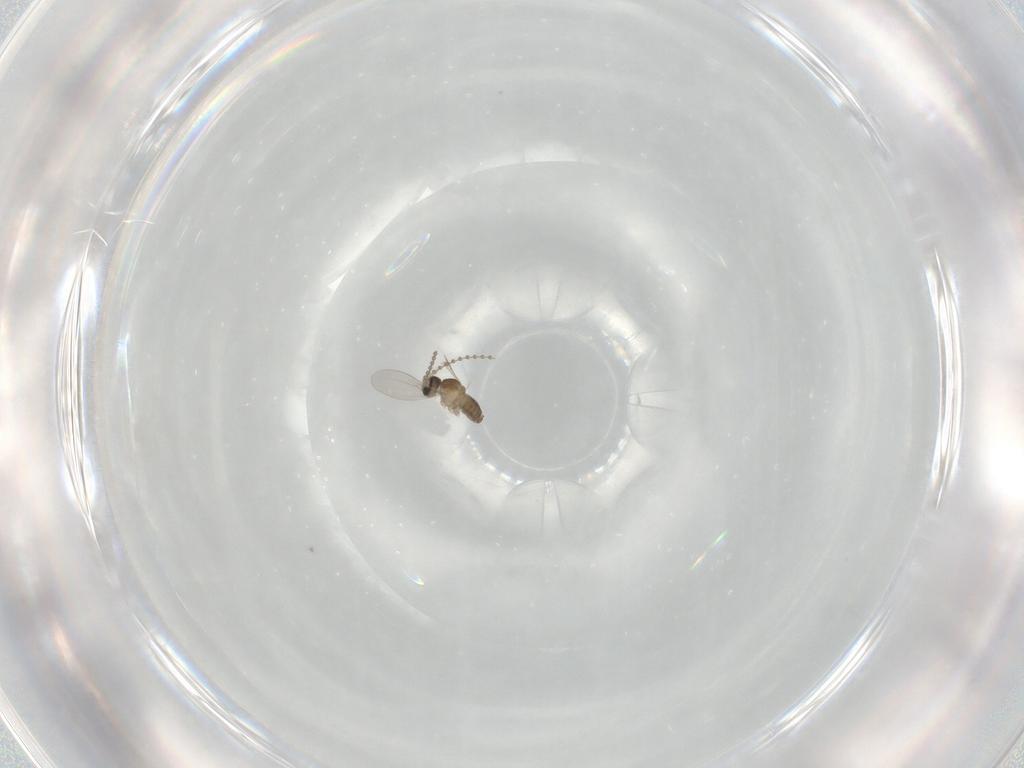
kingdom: Animalia
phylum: Arthropoda
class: Insecta
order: Diptera
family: Cecidomyiidae
